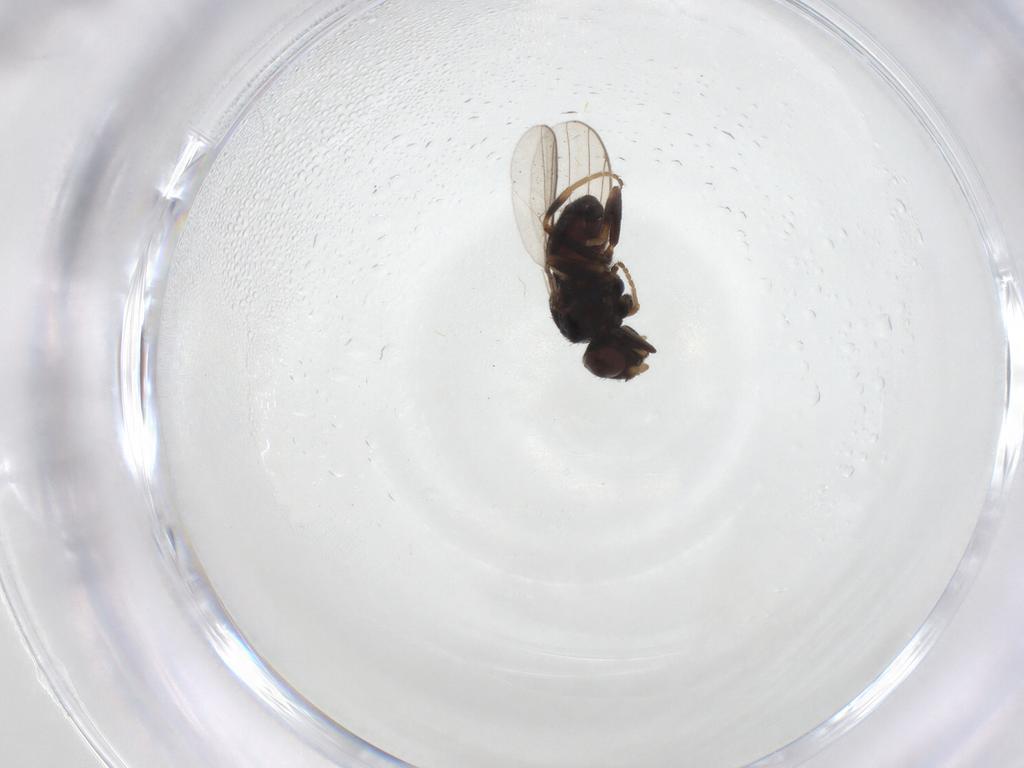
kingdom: Animalia
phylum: Arthropoda
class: Insecta
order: Diptera
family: Chloropidae
